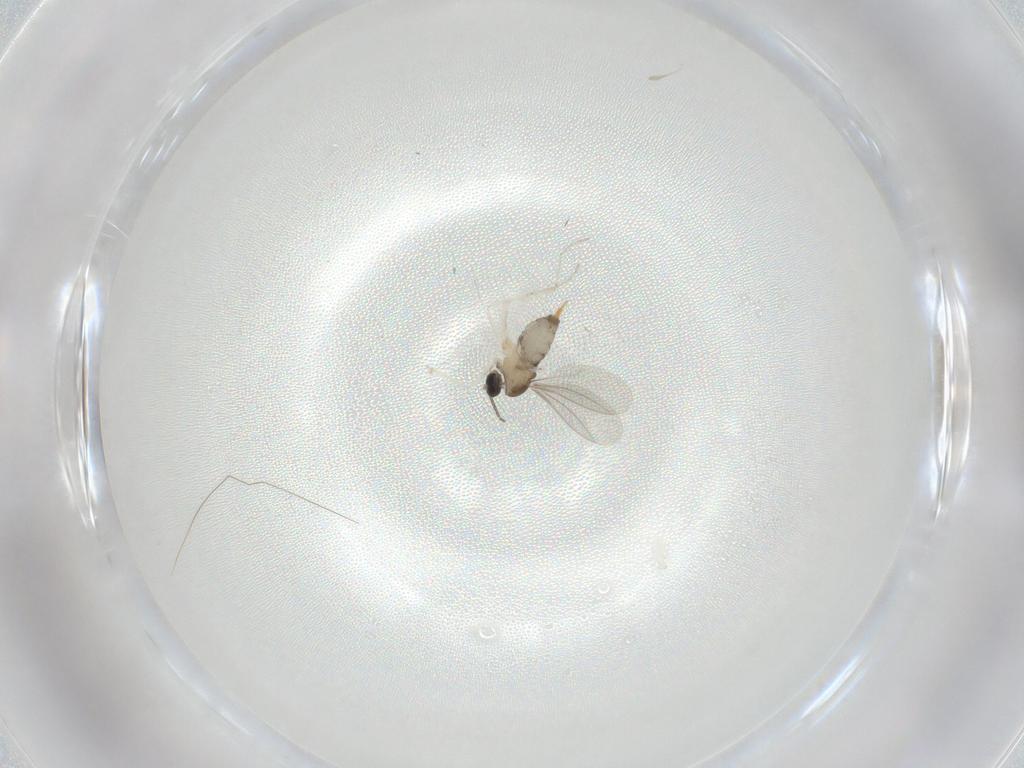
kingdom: Animalia
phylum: Arthropoda
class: Insecta
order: Diptera
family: Cecidomyiidae
